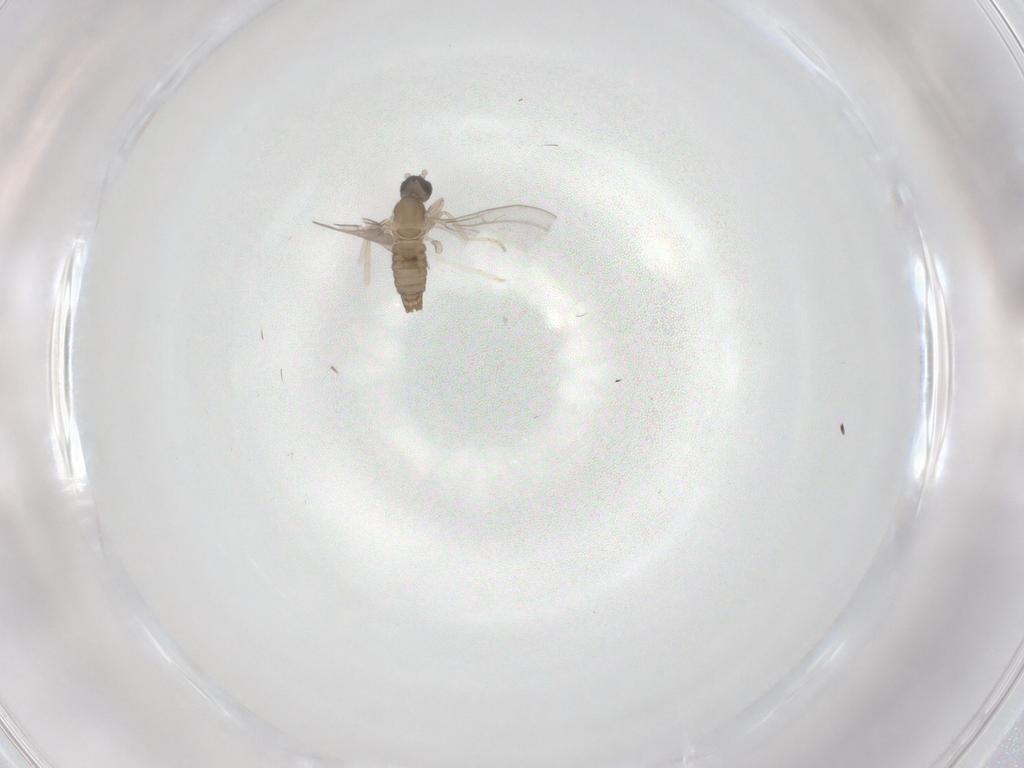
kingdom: Animalia
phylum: Arthropoda
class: Insecta
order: Diptera
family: Cecidomyiidae
